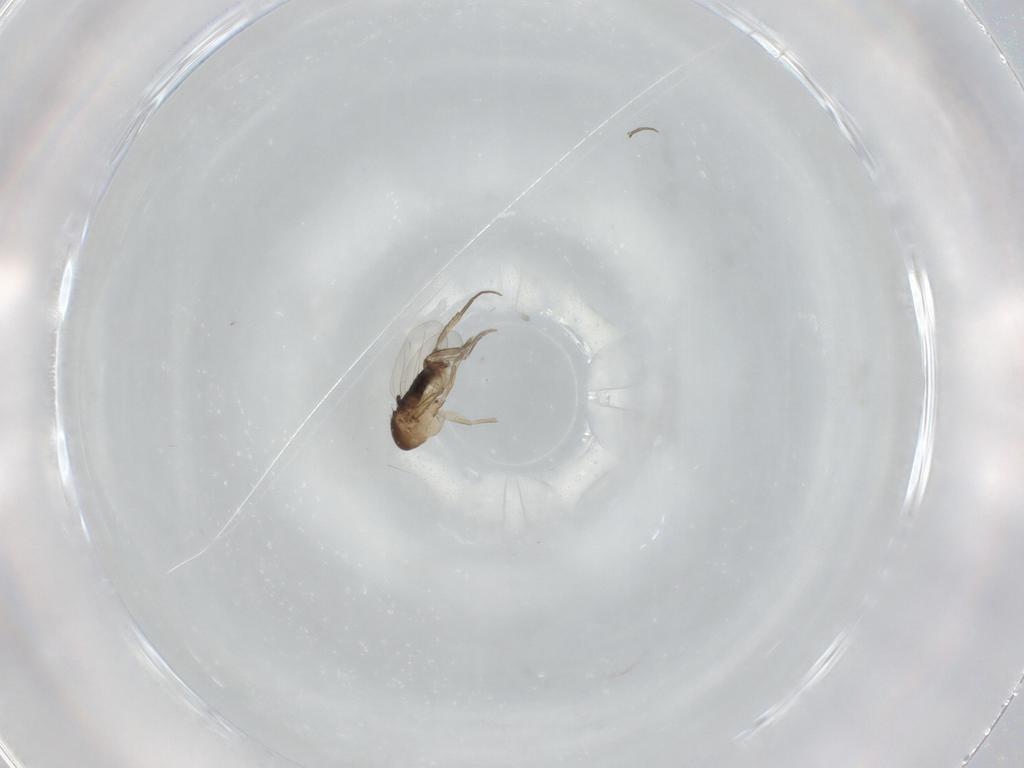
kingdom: Animalia
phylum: Arthropoda
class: Insecta
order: Diptera
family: Phoridae
